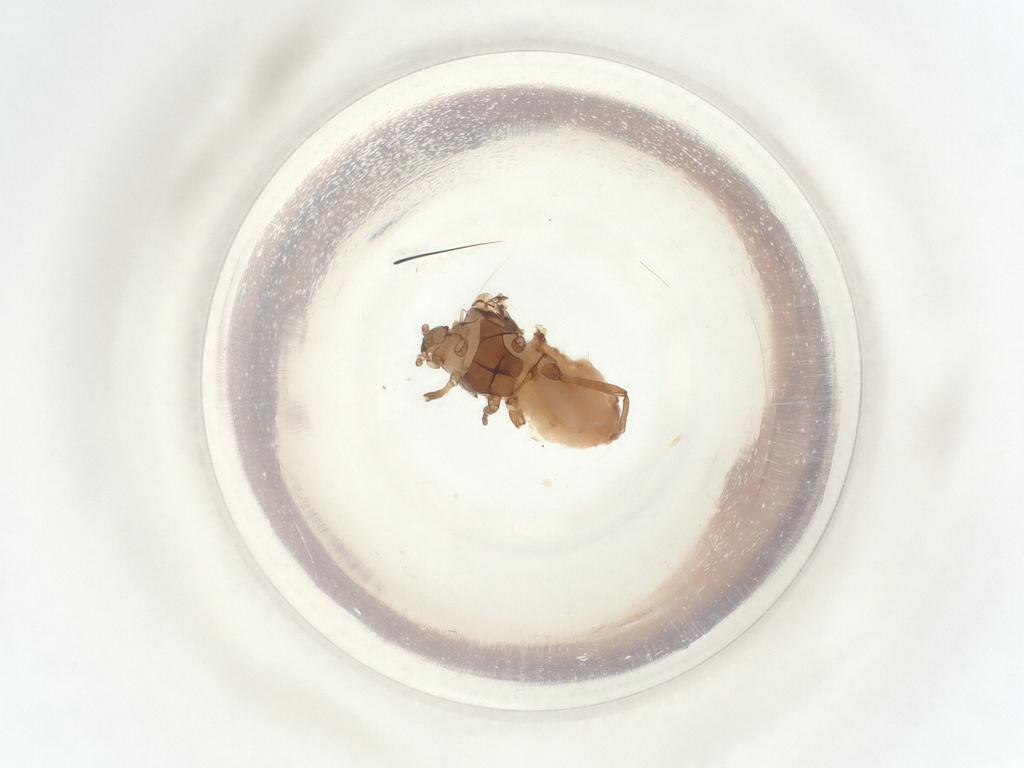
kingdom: Animalia
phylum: Arthropoda
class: Insecta
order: Hemiptera
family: Aphididae
